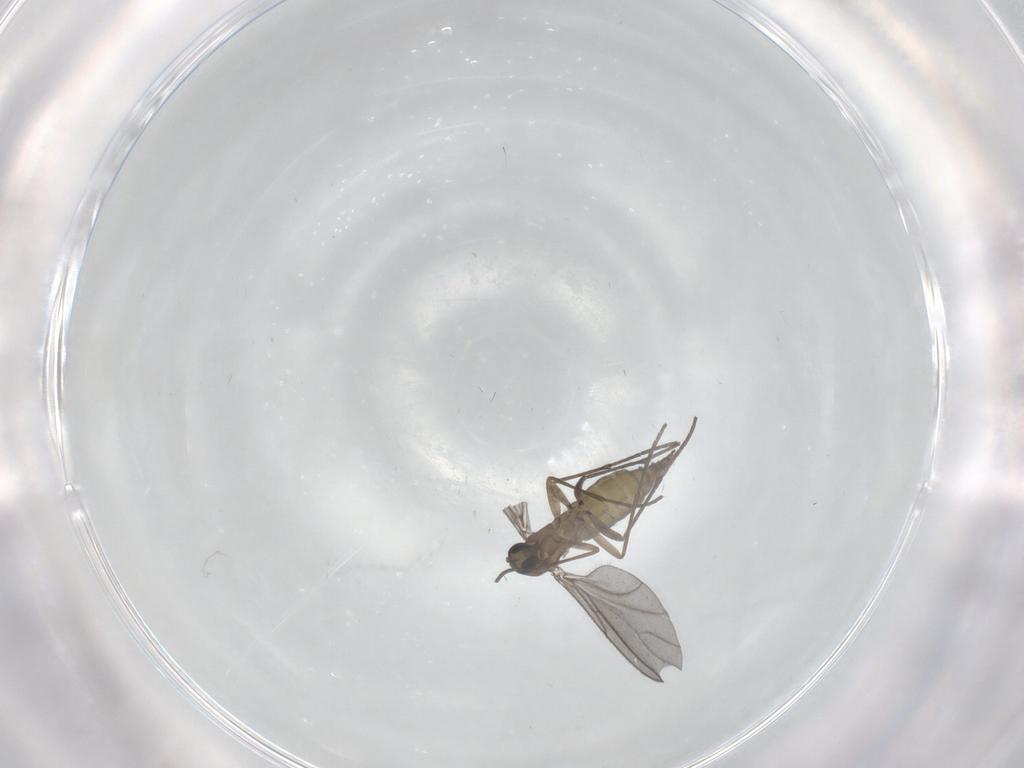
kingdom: Animalia
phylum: Arthropoda
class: Insecta
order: Diptera
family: Sciaridae
